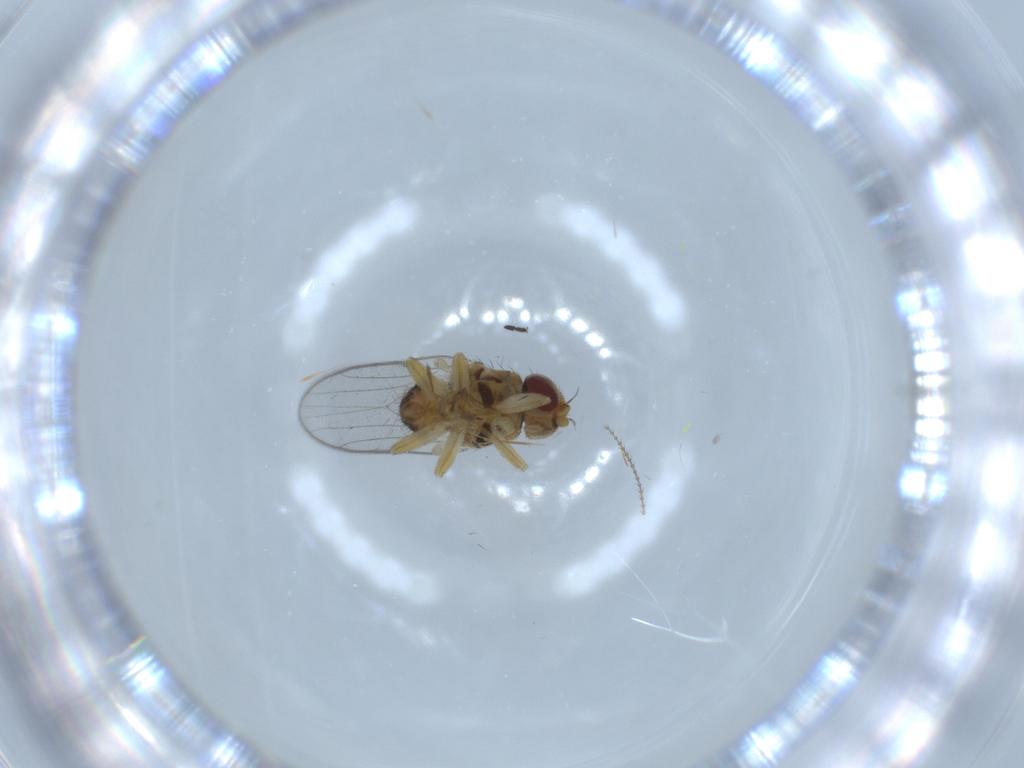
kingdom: Animalia
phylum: Arthropoda
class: Insecta
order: Diptera
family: Chloropidae
